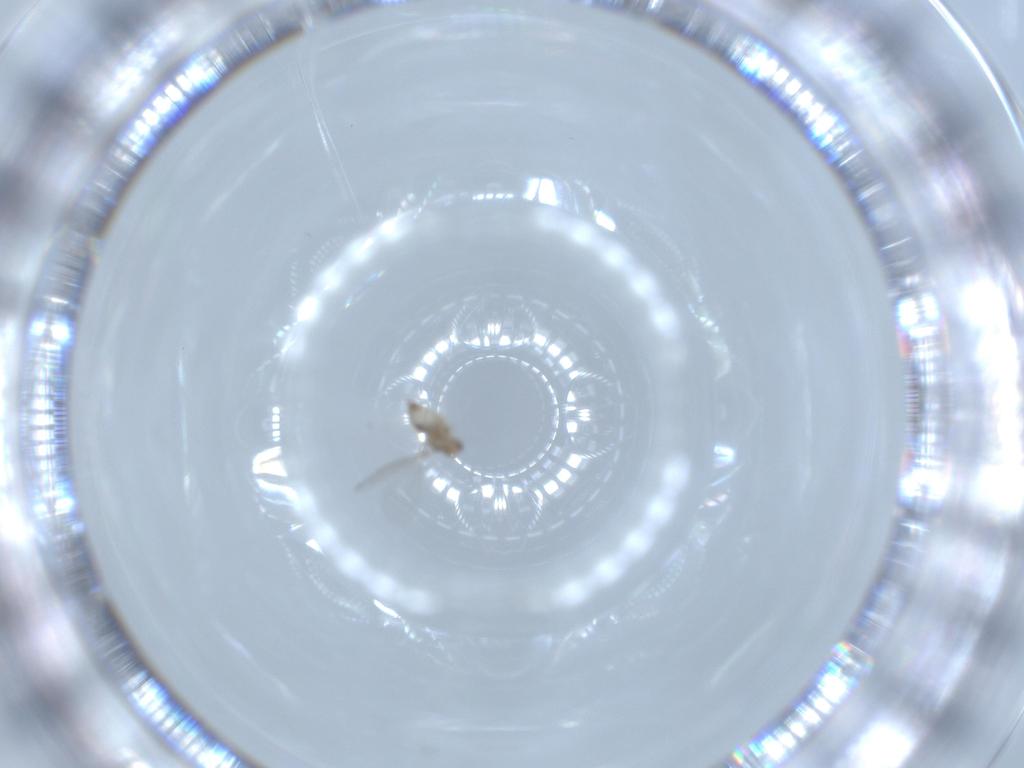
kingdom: Animalia
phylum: Arthropoda
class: Insecta
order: Diptera
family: Cecidomyiidae
